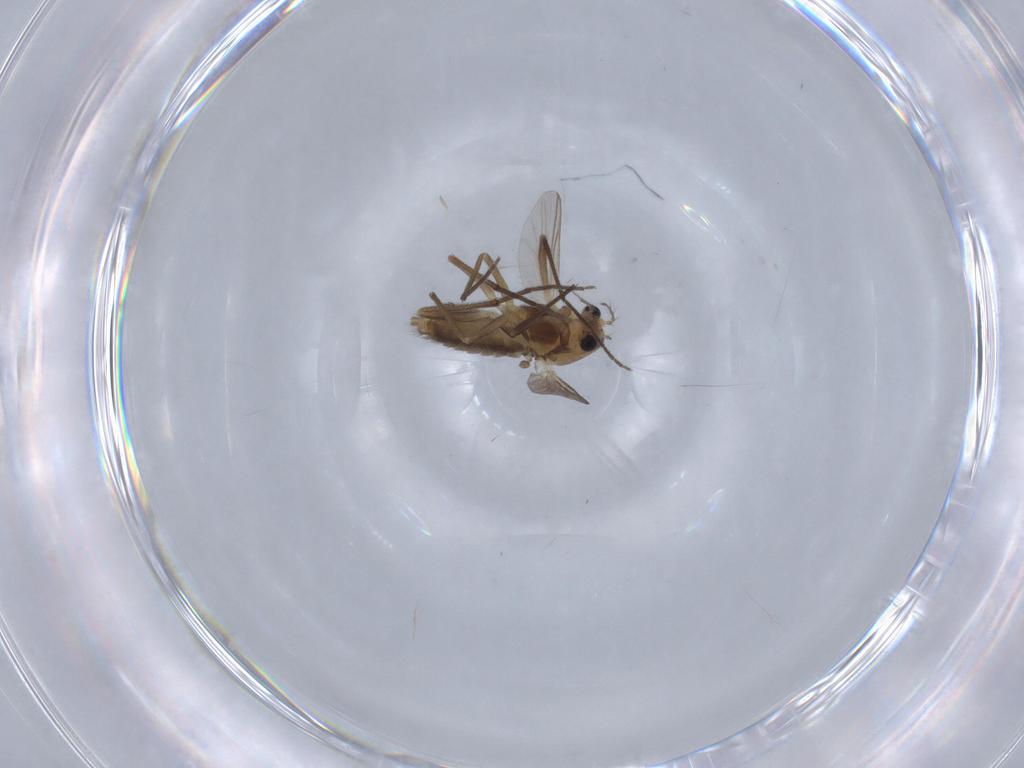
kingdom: Animalia
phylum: Arthropoda
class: Insecta
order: Diptera
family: Chironomidae
